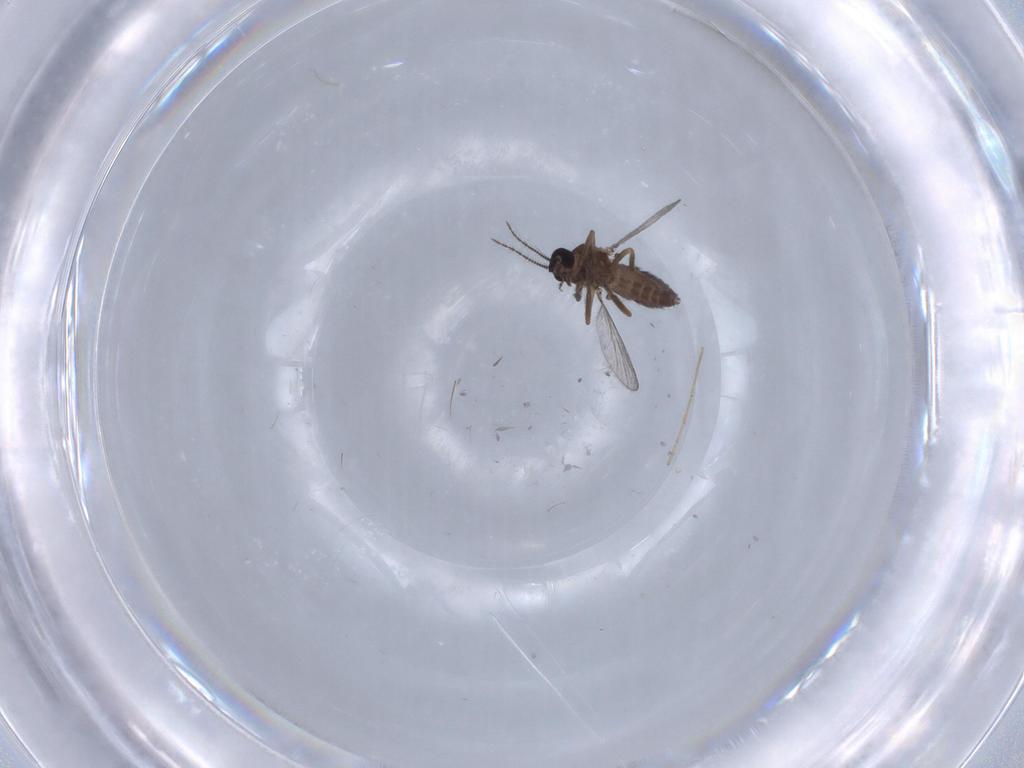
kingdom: Animalia
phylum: Arthropoda
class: Insecta
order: Diptera
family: Chironomidae
